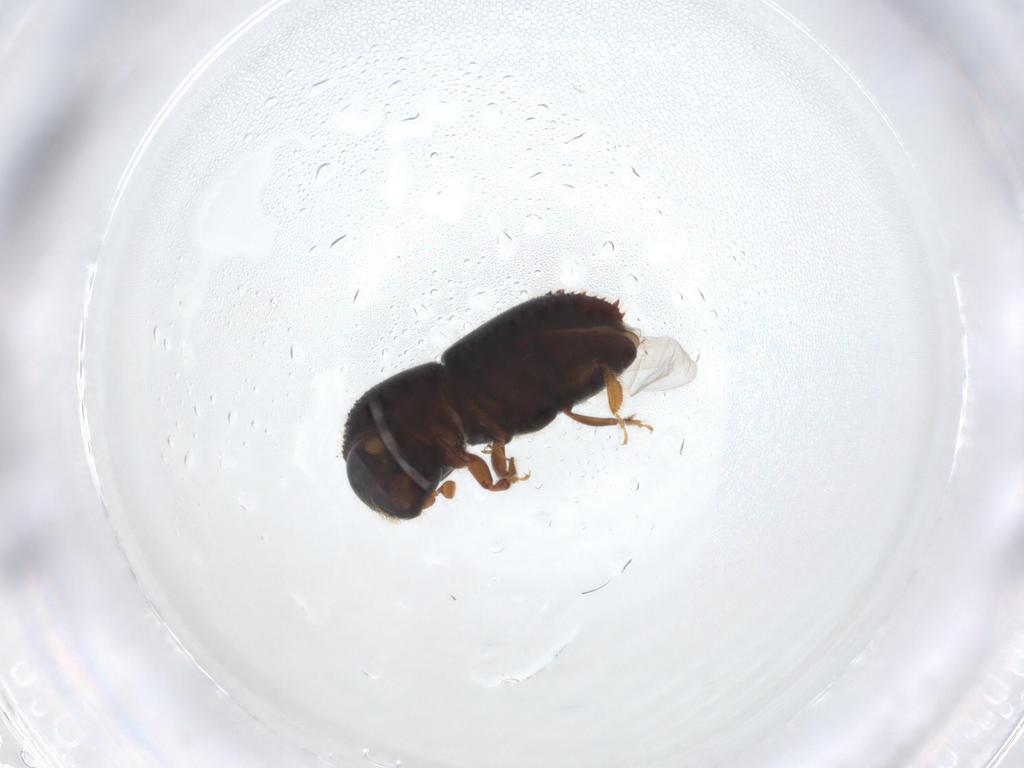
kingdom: Animalia
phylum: Arthropoda
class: Insecta
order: Coleoptera
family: Curculionidae
